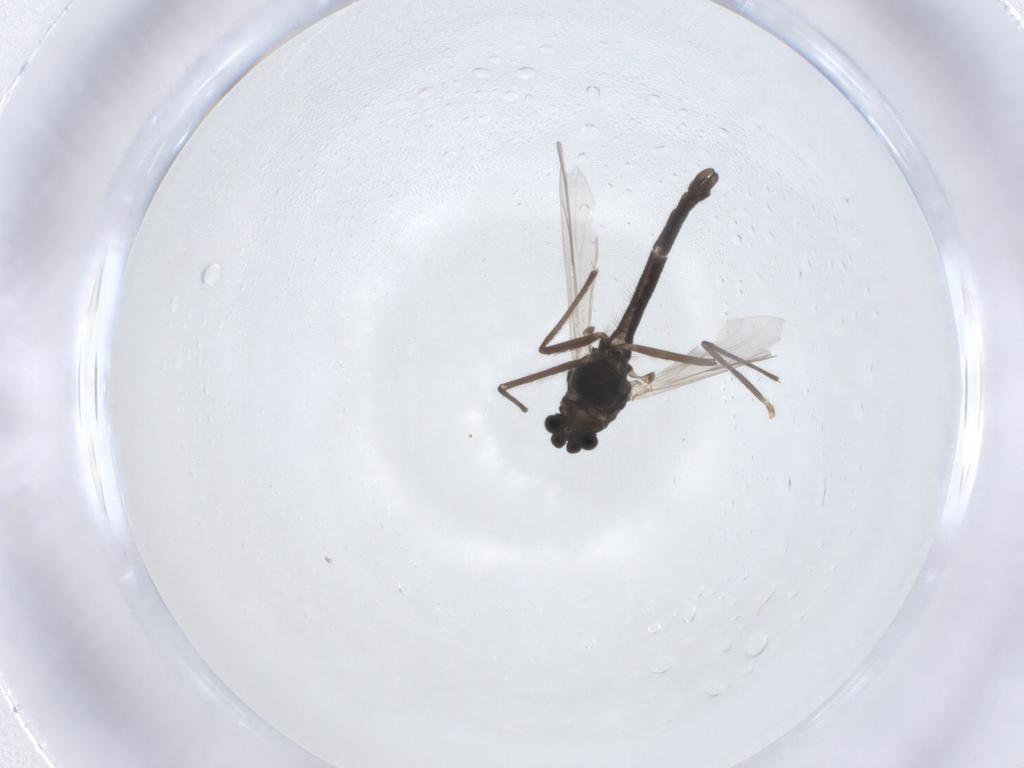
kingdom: Animalia
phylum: Arthropoda
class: Insecta
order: Diptera
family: Chironomidae
